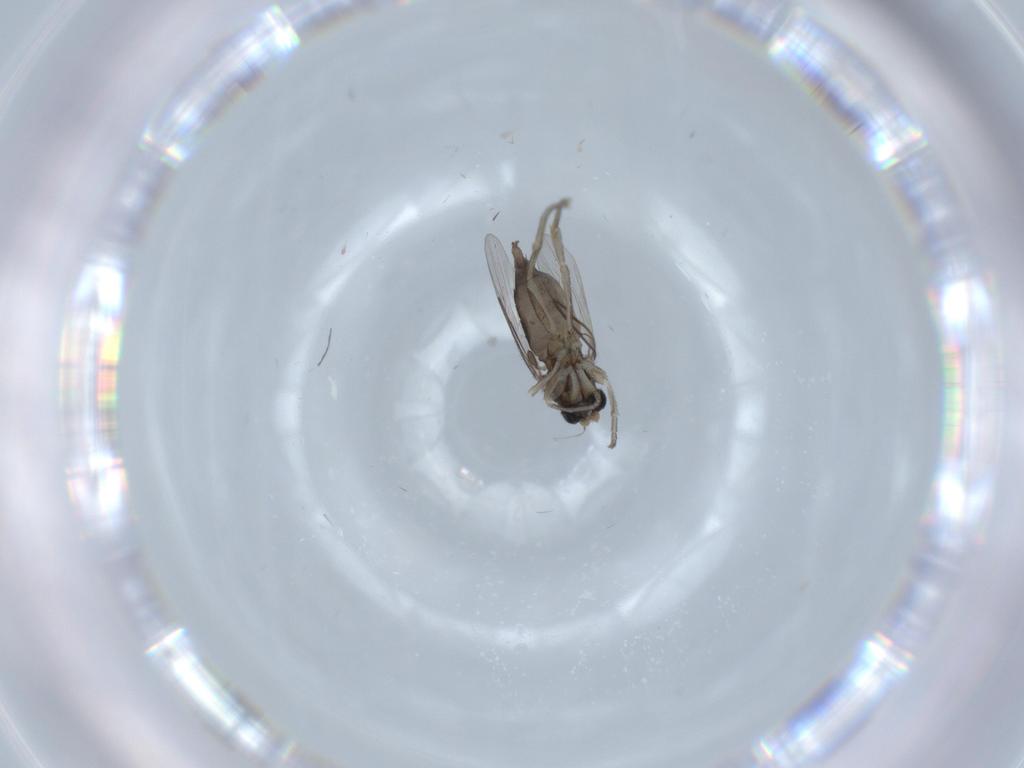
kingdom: Animalia
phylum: Arthropoda
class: Insecta
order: Diptera
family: Phoridae
